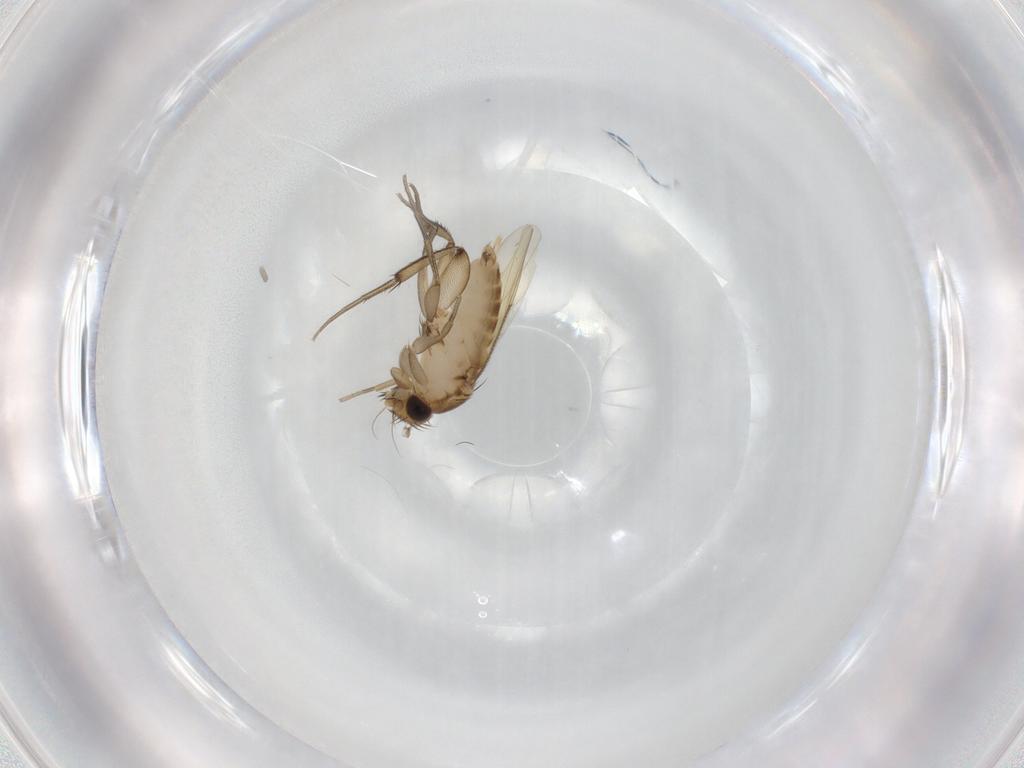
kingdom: Animalia
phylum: Arthropoda
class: Insecta
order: Diptera
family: Phoridae
